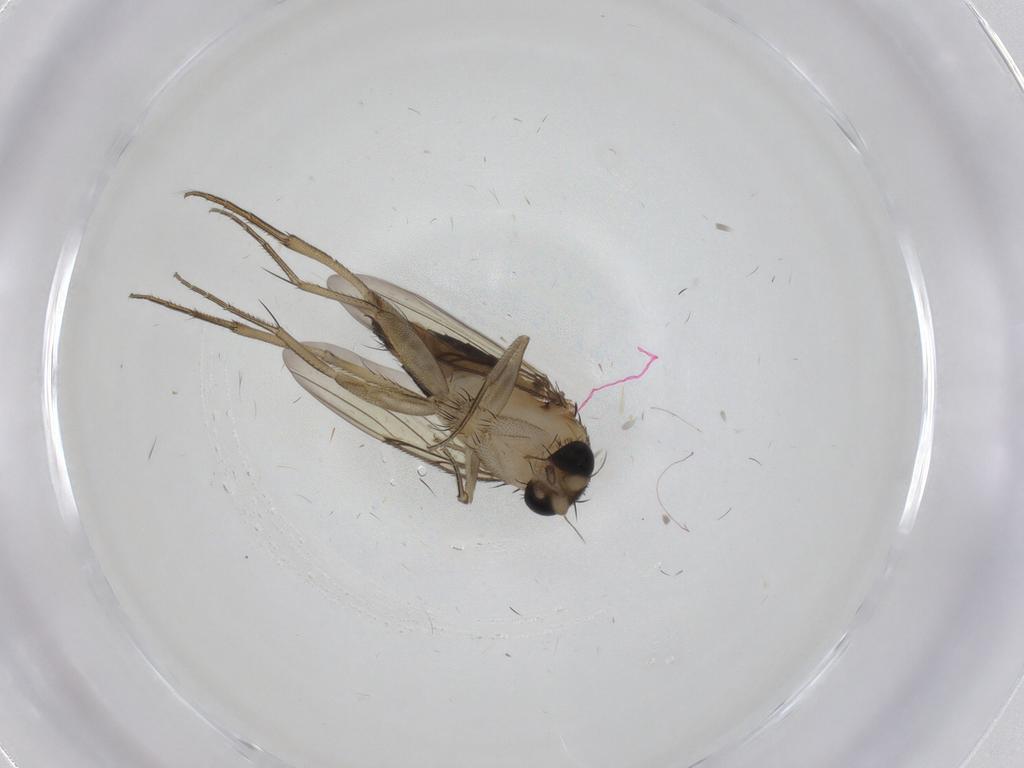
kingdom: Animalia
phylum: Arthropoda
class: Insecta
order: Diptera
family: Phoridae
